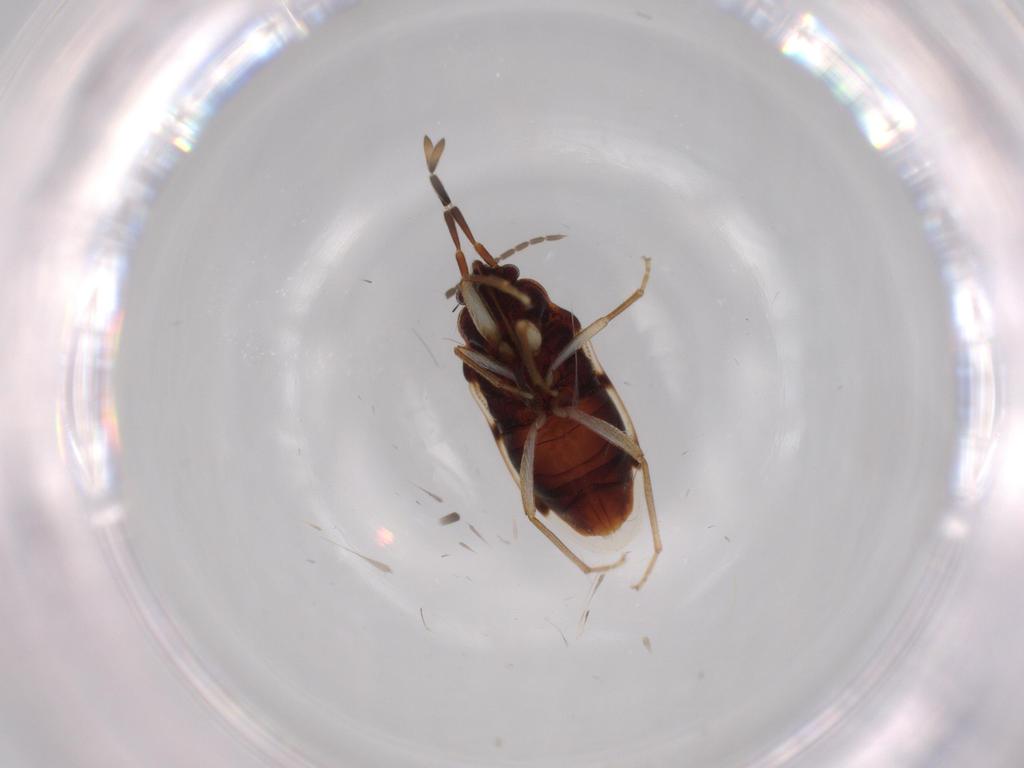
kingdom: Animalia
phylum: Arthropoda
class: Insecta
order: Hemiptera
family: Rhyparochromidae
